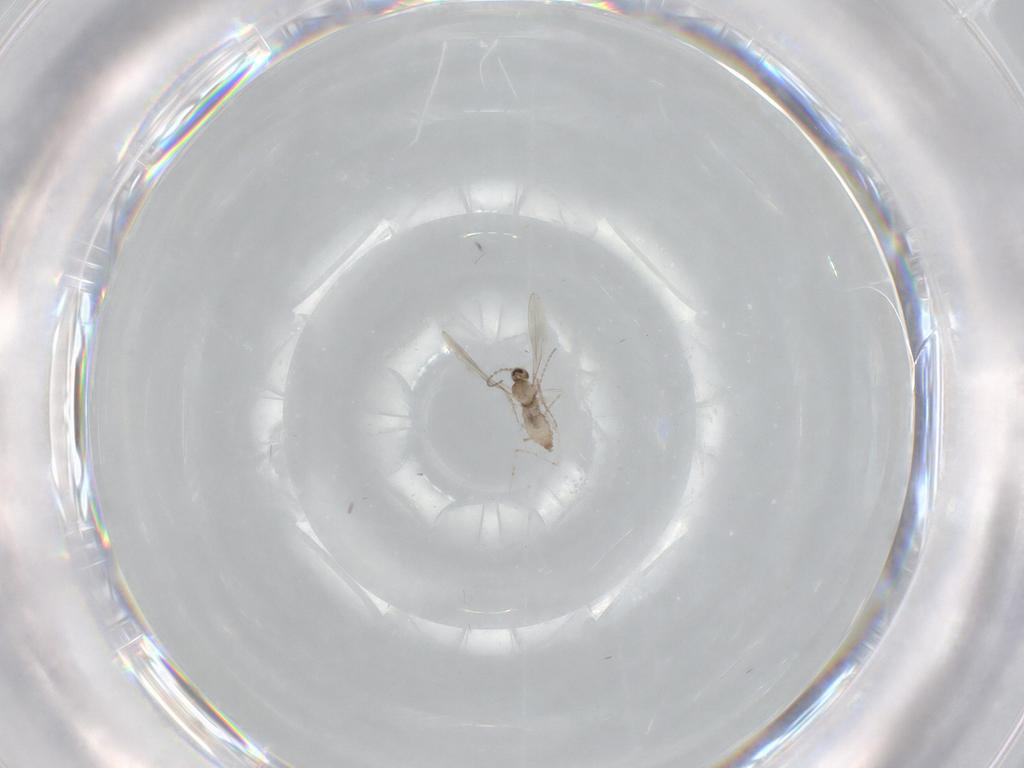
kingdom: Animalia
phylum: Arthropoda
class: Insecta
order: Diptera
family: Cecidomyiidae
